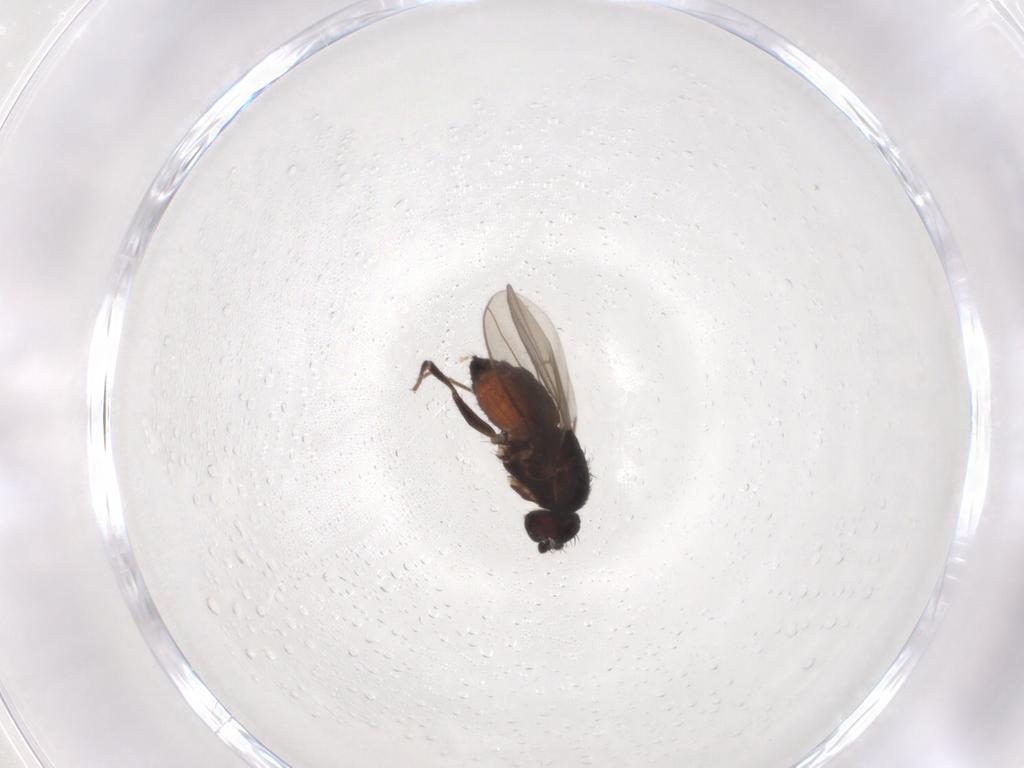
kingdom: Animalia
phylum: Arthropoda
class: Insecta
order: Diptera
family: Sphaeroceridae
